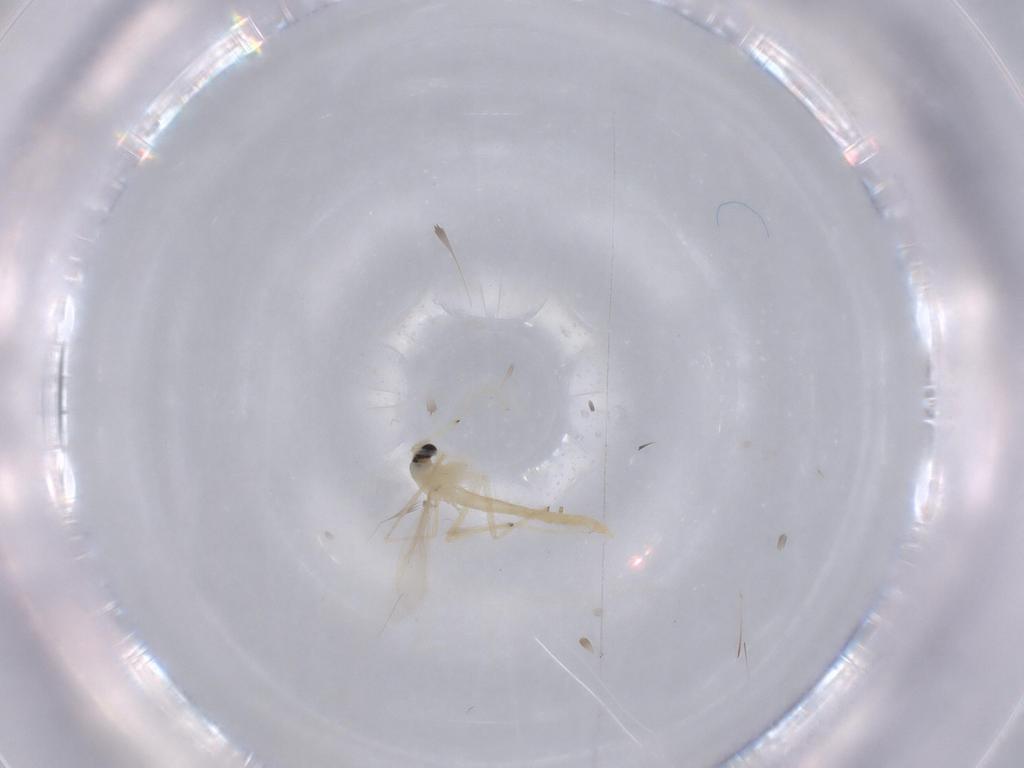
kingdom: Animalia
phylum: Arthropoda
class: Insecta
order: Diptera
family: Chironomidae
